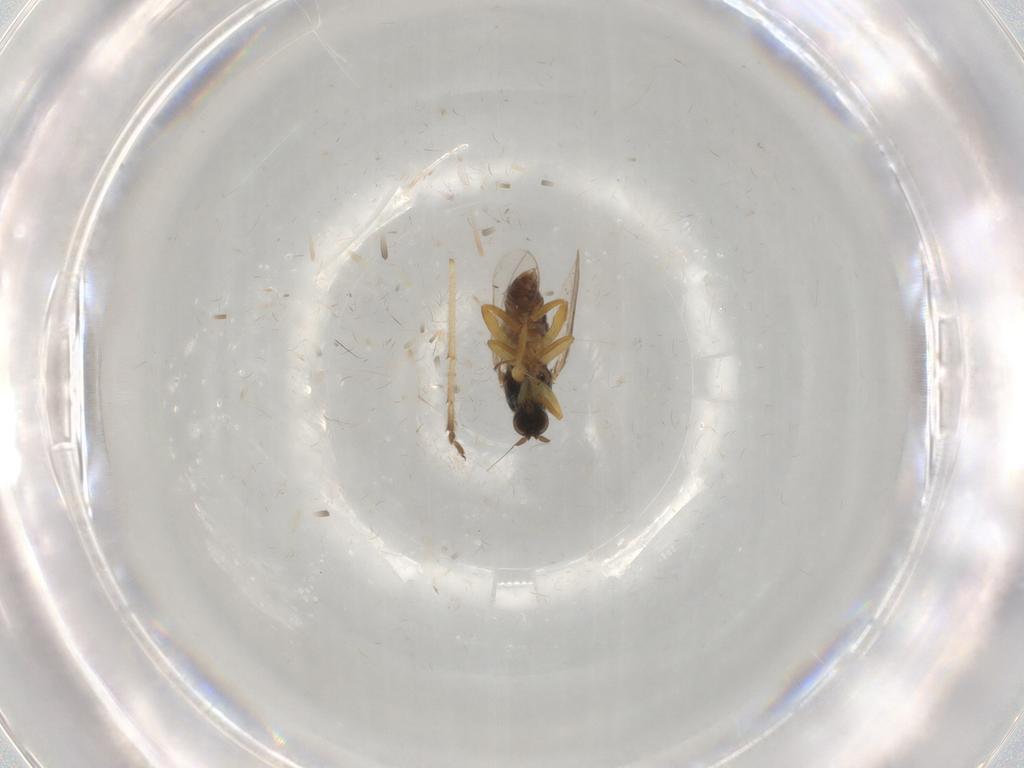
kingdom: Animalia
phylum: Arthropoda
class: Insecta
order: Diptera
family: Hybotidae
